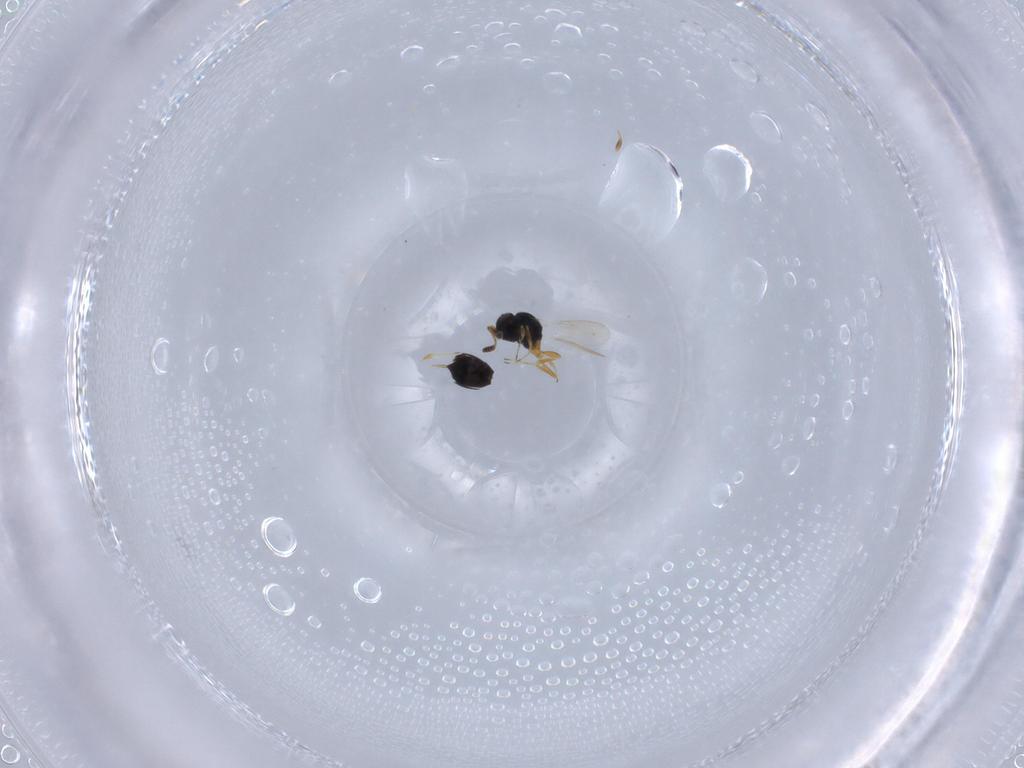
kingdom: Animalia
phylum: Arthropoda
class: Insecta
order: Hymenoptera
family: Scelionidae
